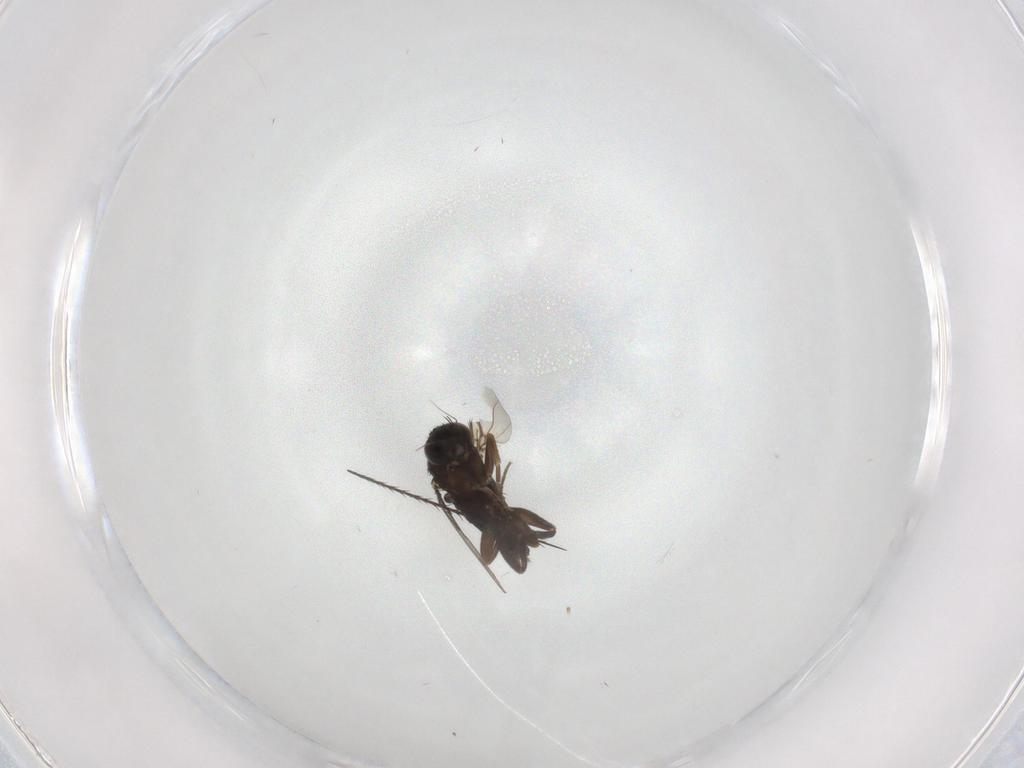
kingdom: Animalia
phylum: Arthropoda
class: Insecta
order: Diptera
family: Phoridae
